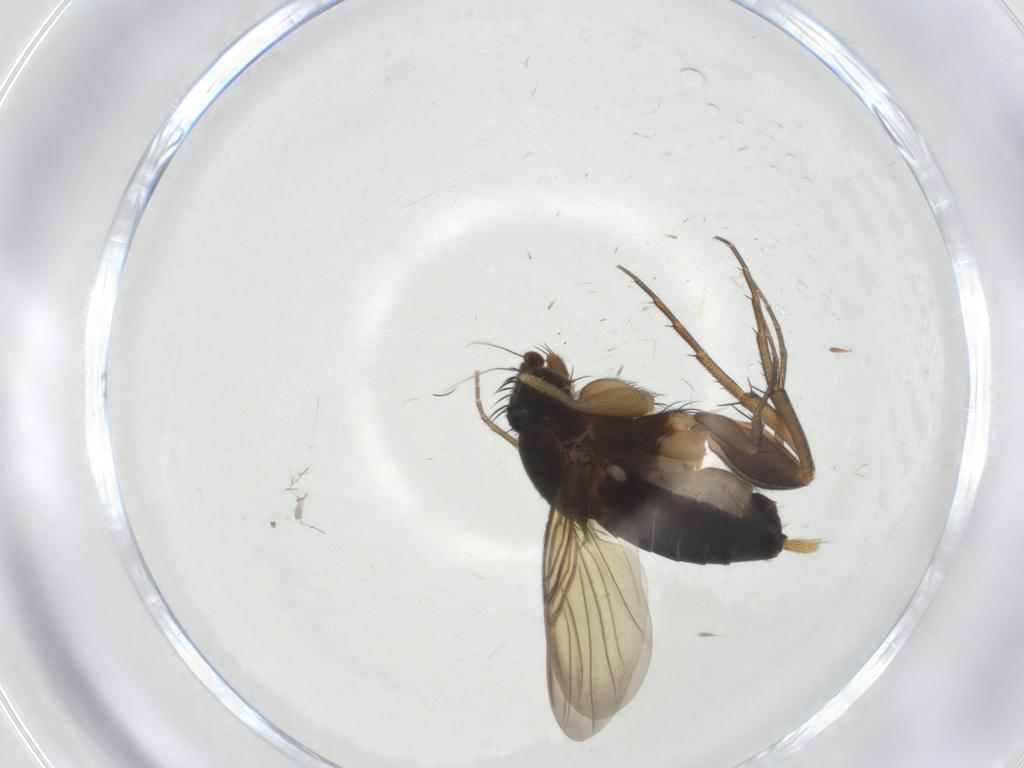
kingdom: Animalia
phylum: Arthropoda
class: Insecta
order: Diptera
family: Phoridae
